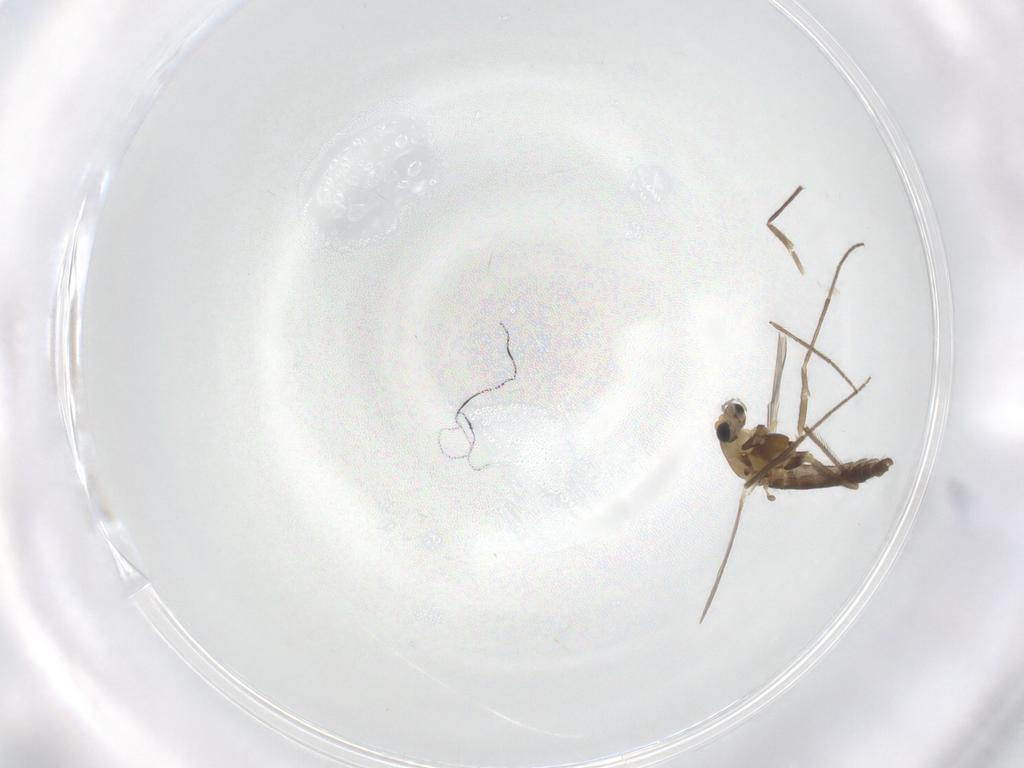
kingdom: Animalia
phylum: Arthropoda
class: Insecta
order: Diptera
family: Chironomidae
